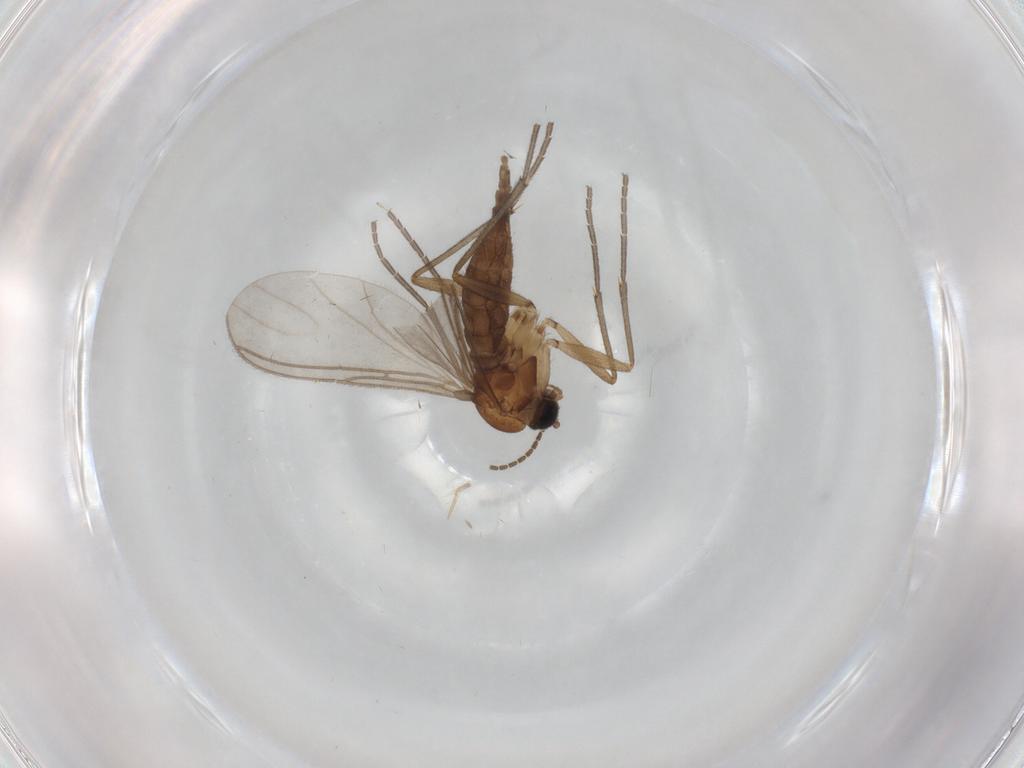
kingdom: Animalia
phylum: Arthropoda
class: Insecta
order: Diptera
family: Sciaridae
